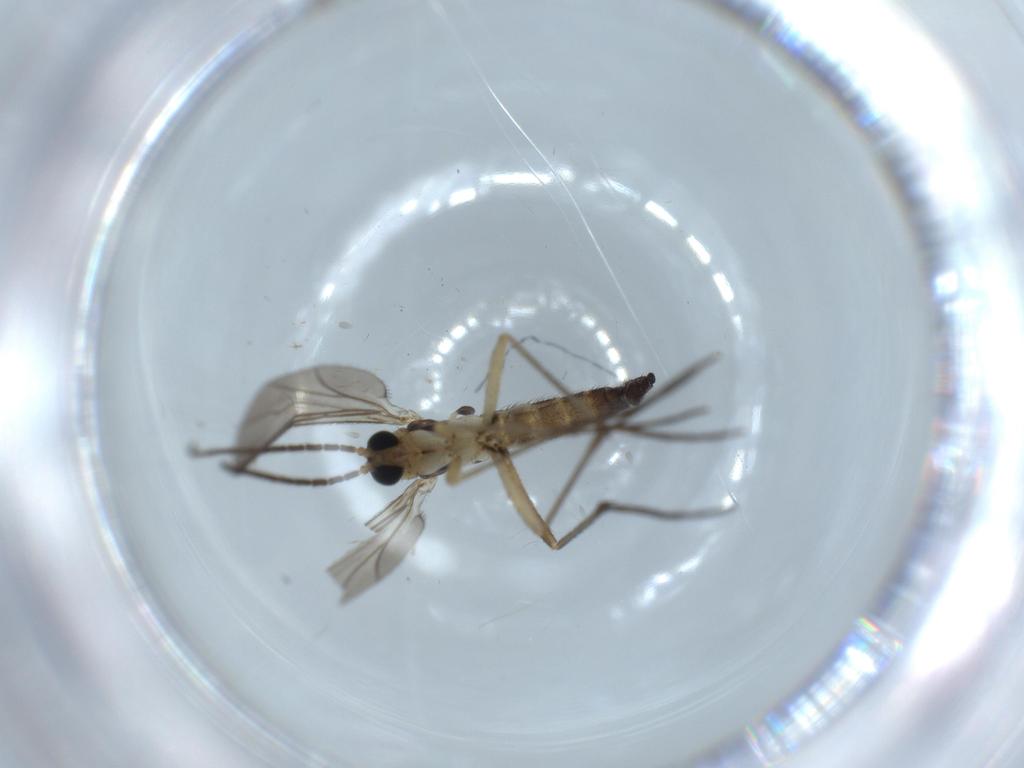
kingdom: Animalia
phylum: Arthropoda
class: Insecta
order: Diptera
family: Sciaridae
